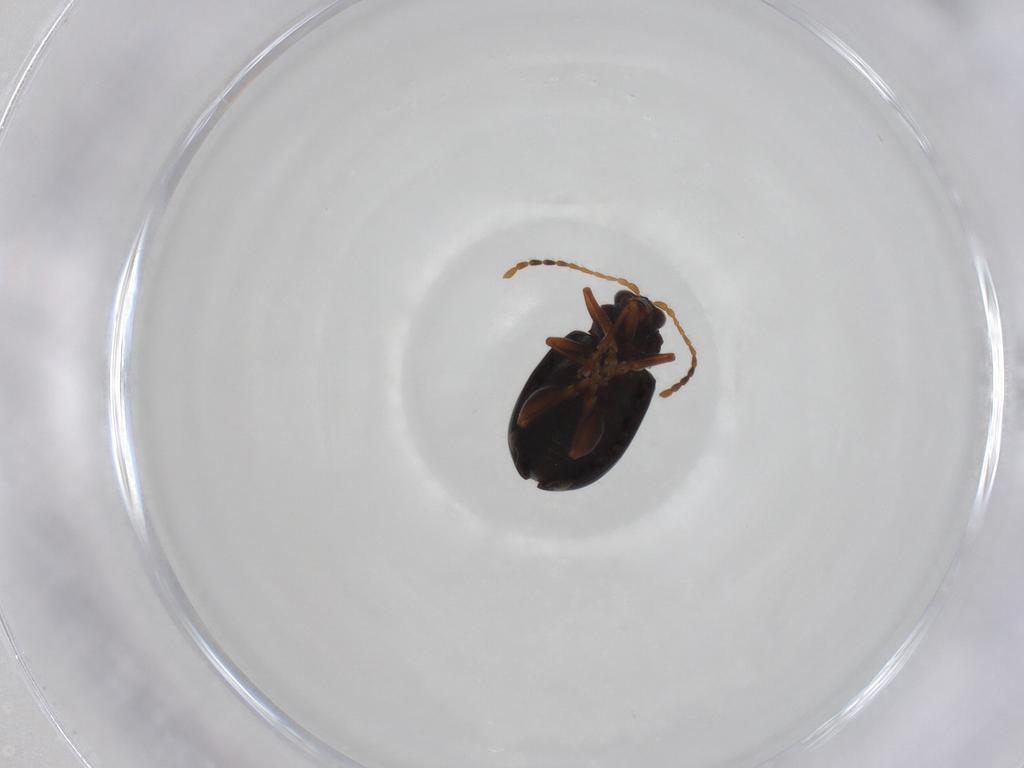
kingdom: Animalia
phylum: Arthropoda
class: Insecta
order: Coleoptera
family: Chrysomelidae
